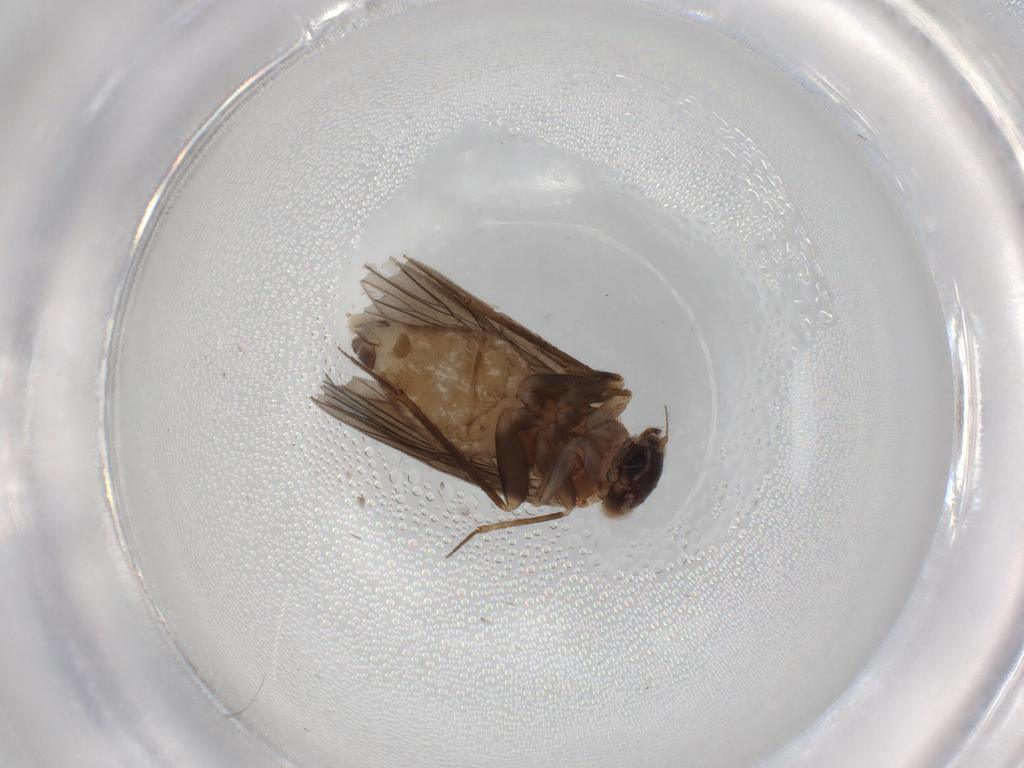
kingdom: Animalia
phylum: Arthropoda
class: Insecta
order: Psocodea
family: Lepidopsocidae
